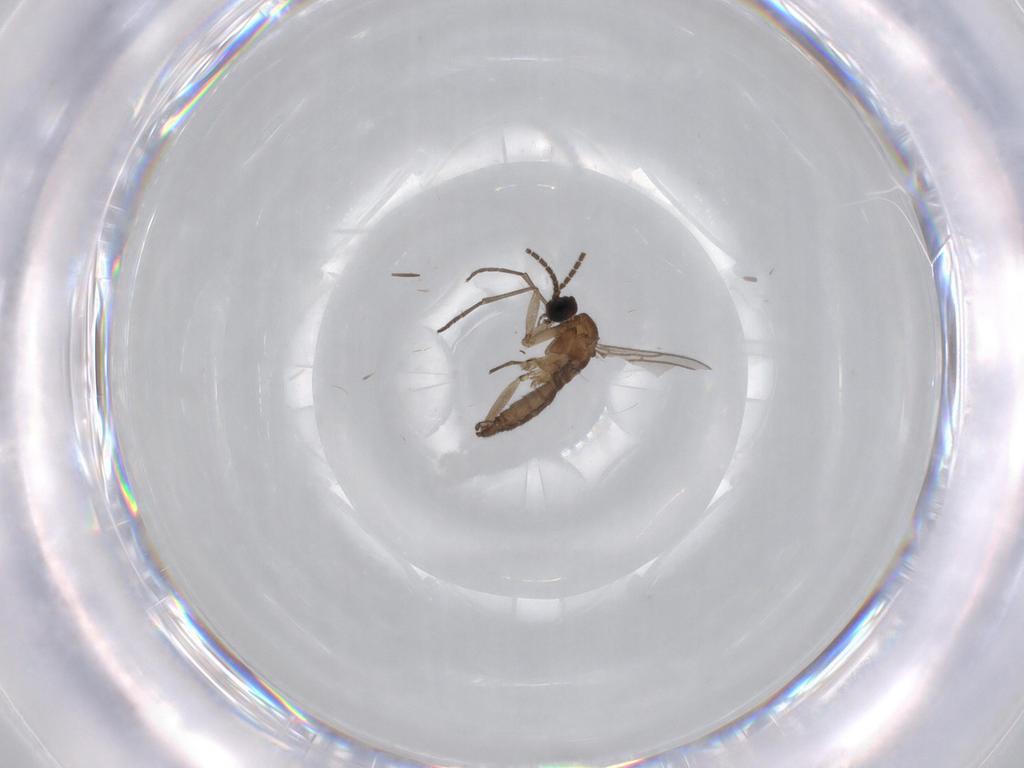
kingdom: Animalia
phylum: Arthropoda
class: Insecta
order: Diptera
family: Sciaridae
